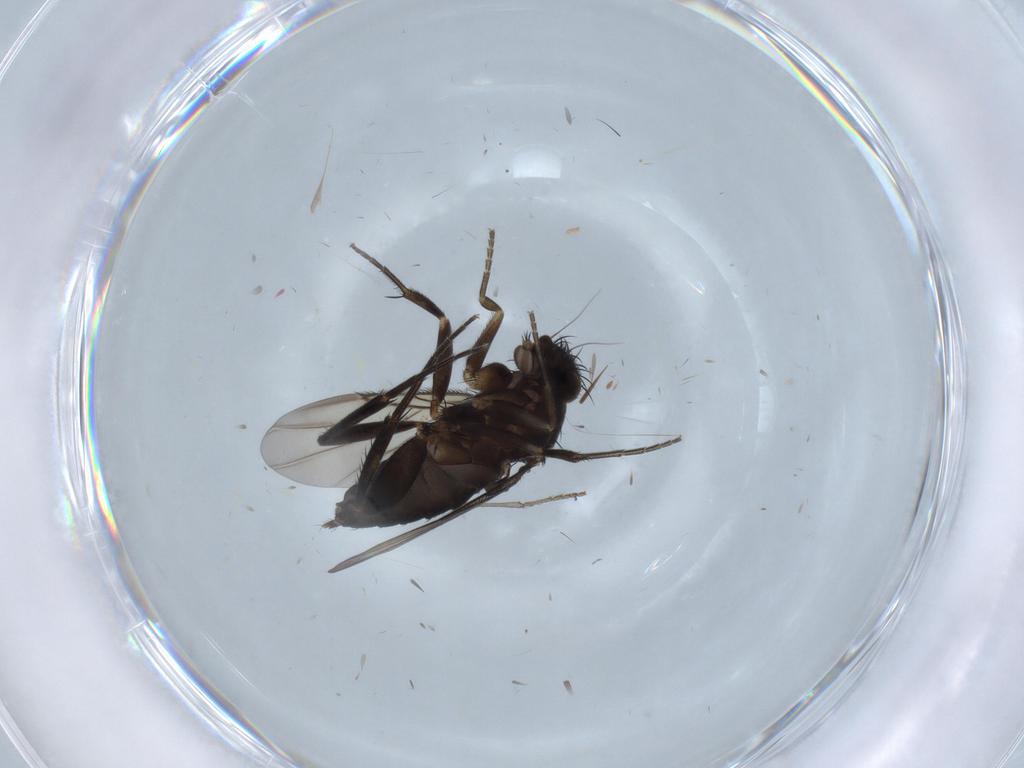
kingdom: Animalia
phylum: Arthropoda
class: Insecta
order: Diptera
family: Phoridae
